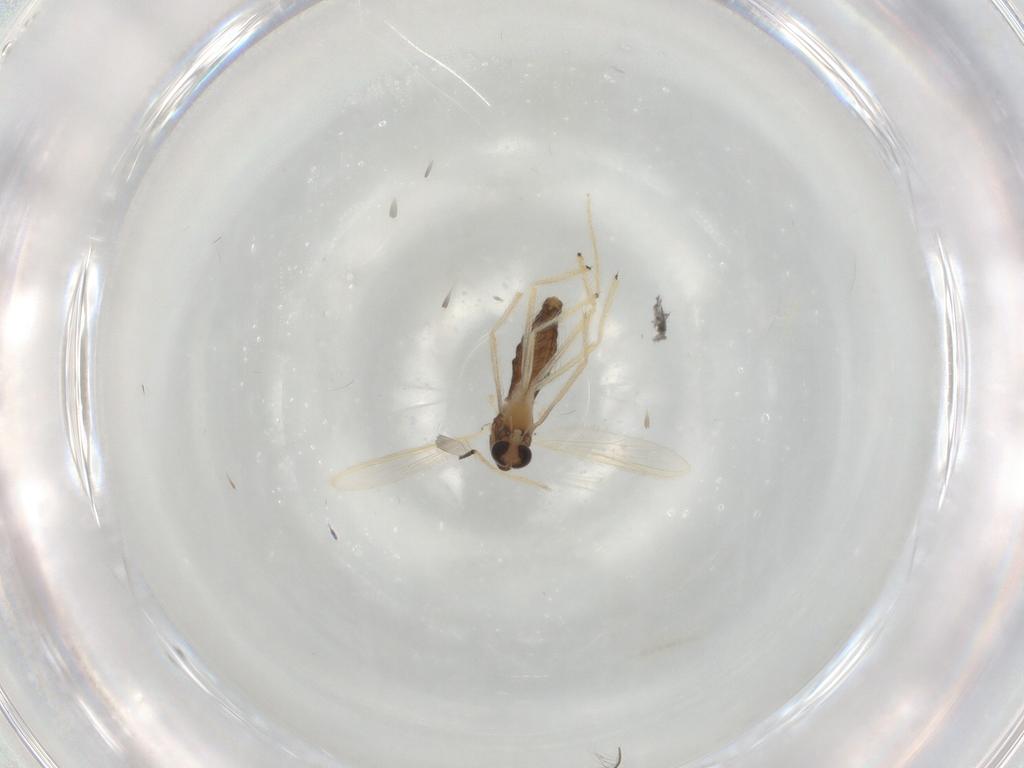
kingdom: Animalia
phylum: Arthropoda
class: Insecta
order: Diptera
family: Chironomidae
